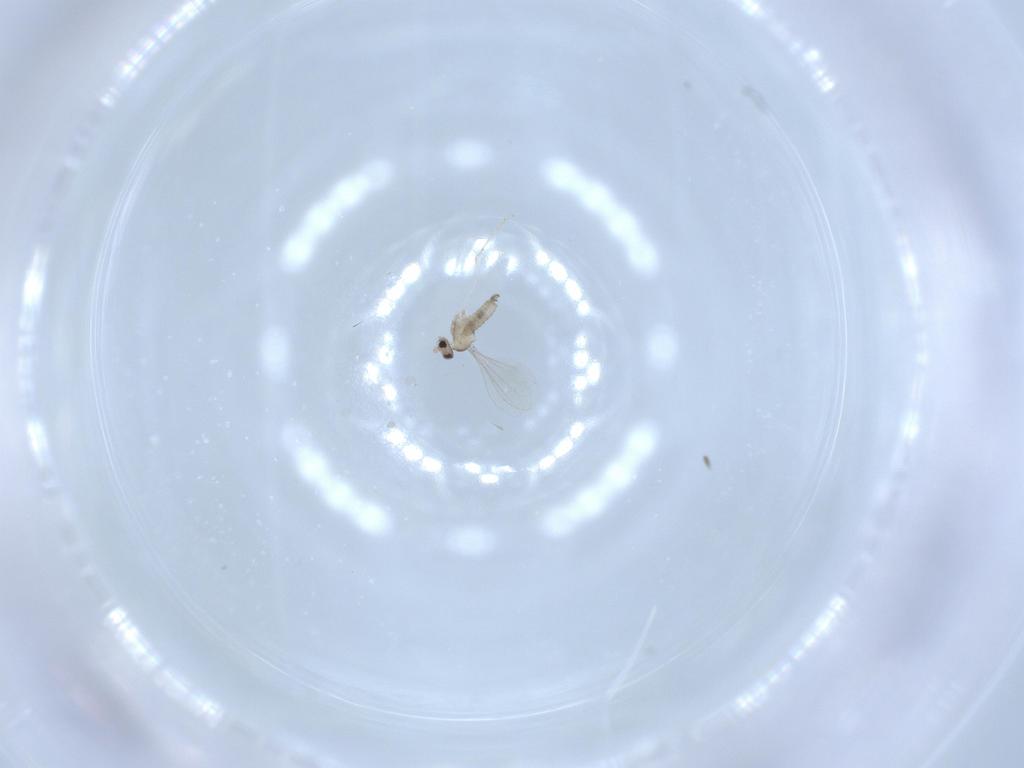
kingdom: Animalia
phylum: Arthropoda
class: Insecta
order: Diptera
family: Cecidomyiidae
